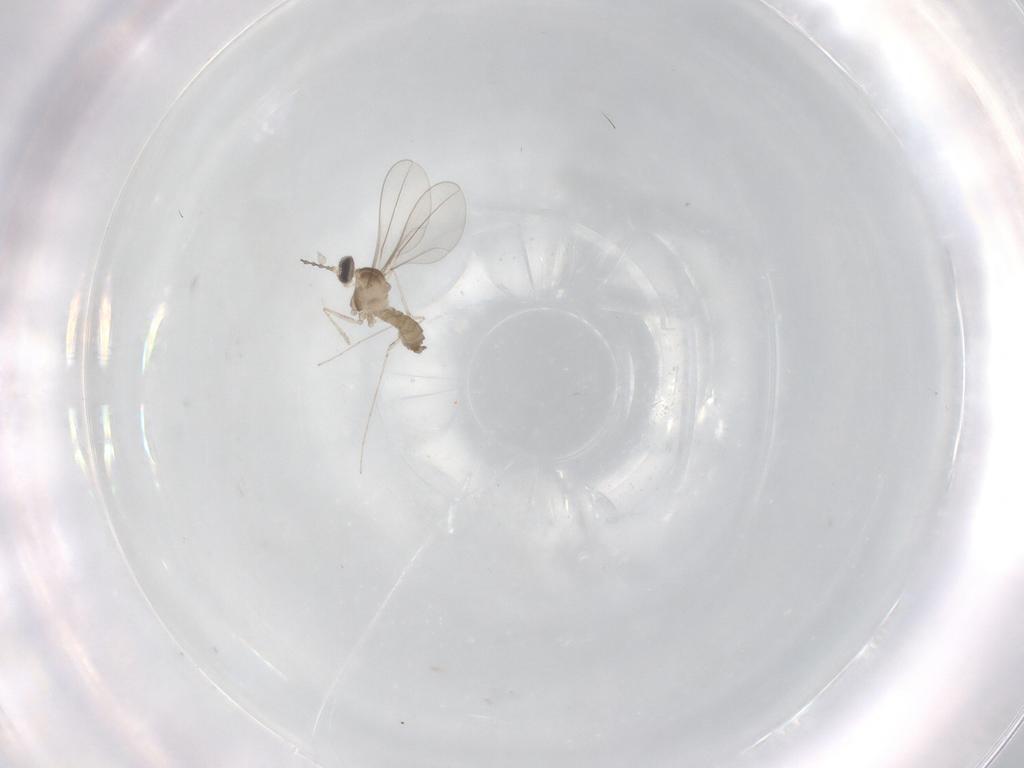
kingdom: Animalia
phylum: Arthropoda
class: Insecta
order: Diptera
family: Cecidomyiidae
